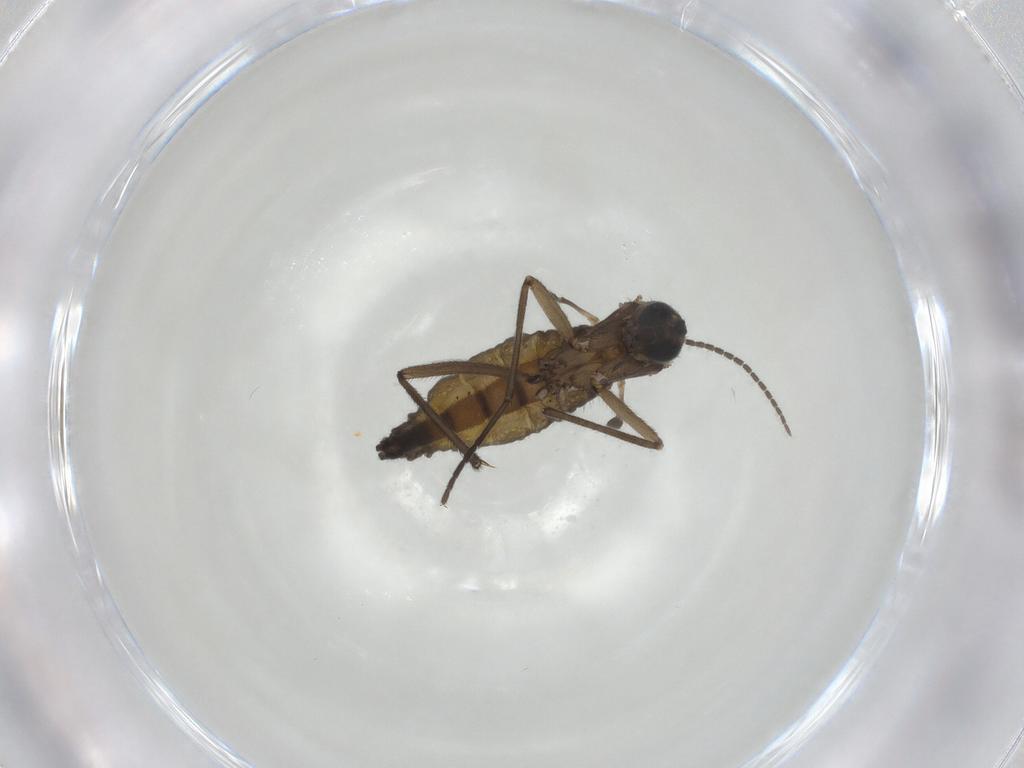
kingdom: Animalia
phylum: Arthropoda
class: Insecta
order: Diptera
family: Sciaridae
